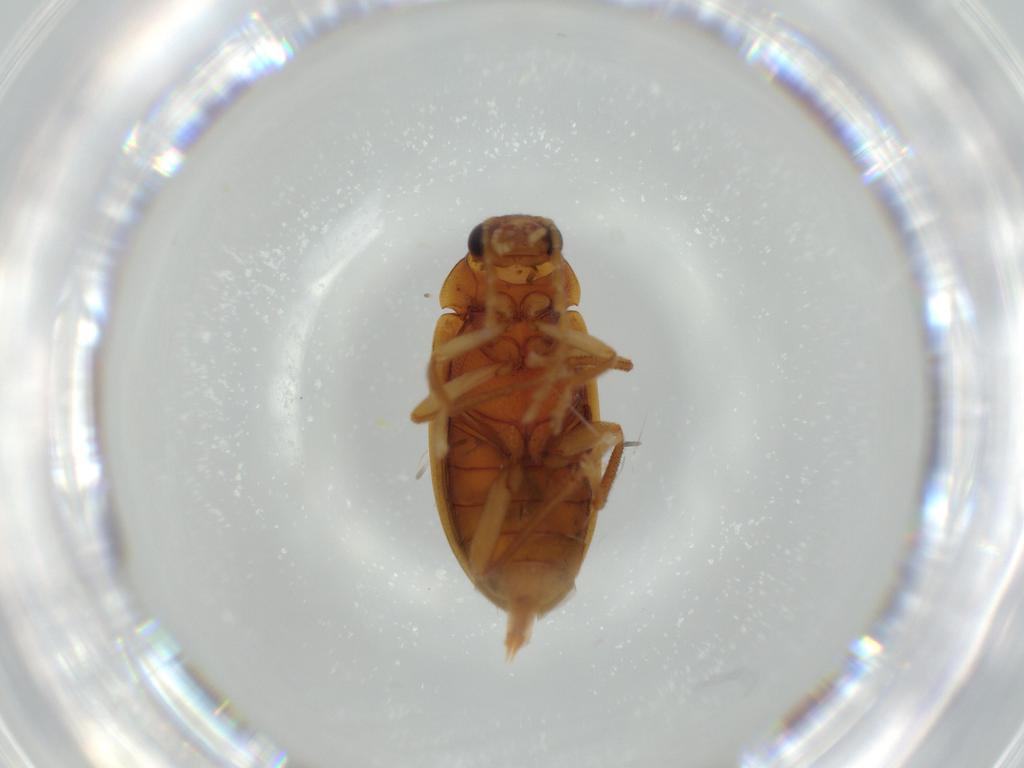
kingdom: Animalia
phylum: Arthropoda
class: Insecta
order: Coleoptera
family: Ptilodactylidae
